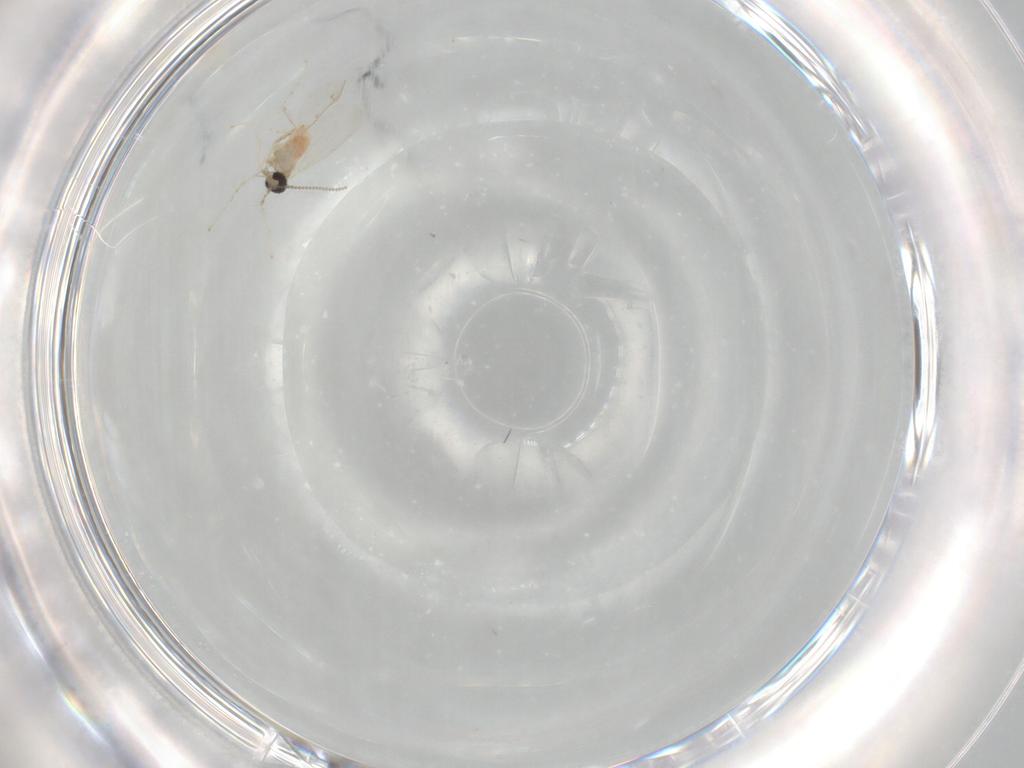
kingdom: Animalia
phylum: Arthropoda
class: Insecta
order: Diptera
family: Cecidomyiidae
